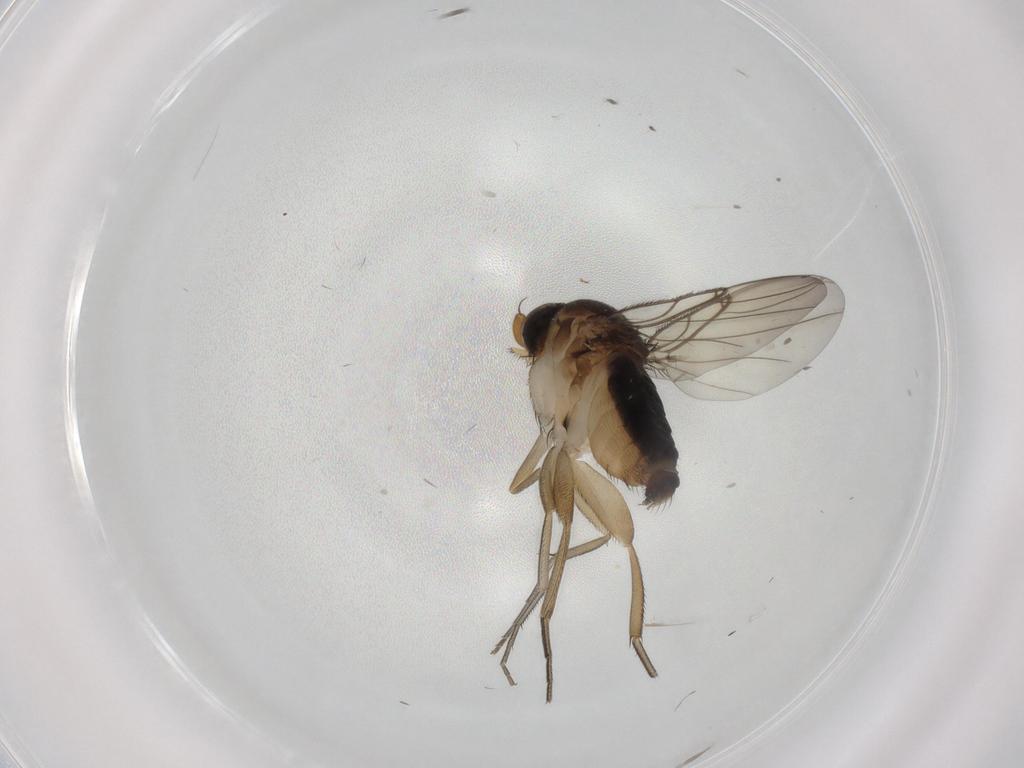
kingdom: Animalia
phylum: Arthropoda
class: Insecta
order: Diptera
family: Phoridae
